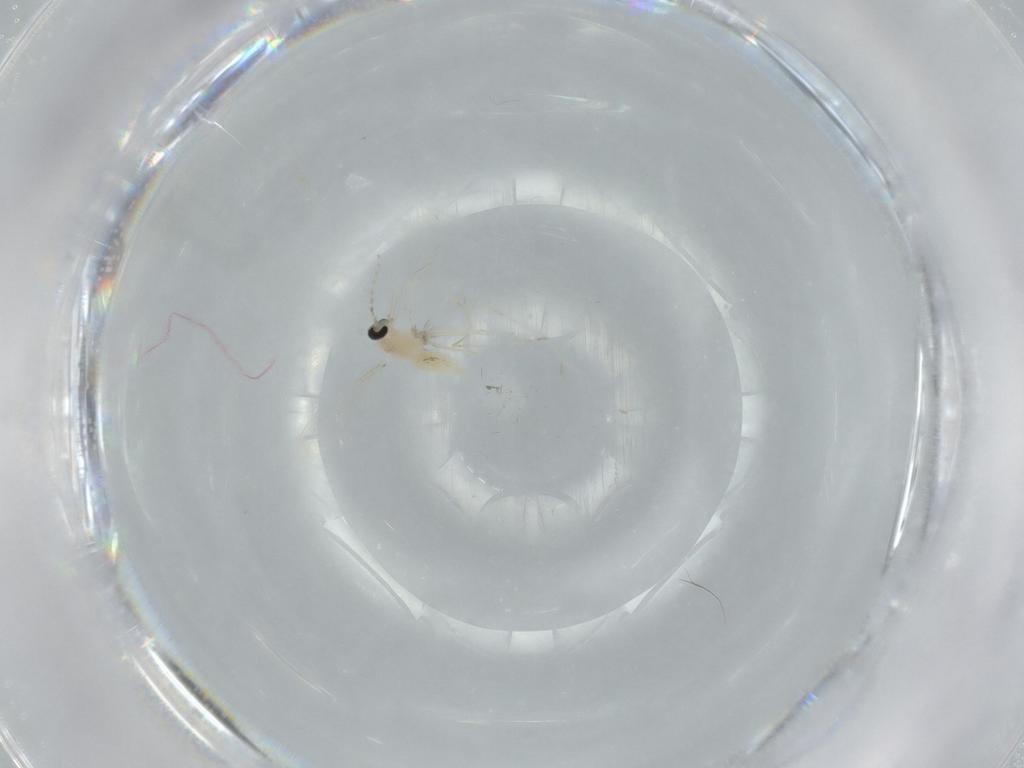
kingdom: Animalia
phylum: Arthropoda
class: Insecta
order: Diptera
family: Cecidomyiidae
